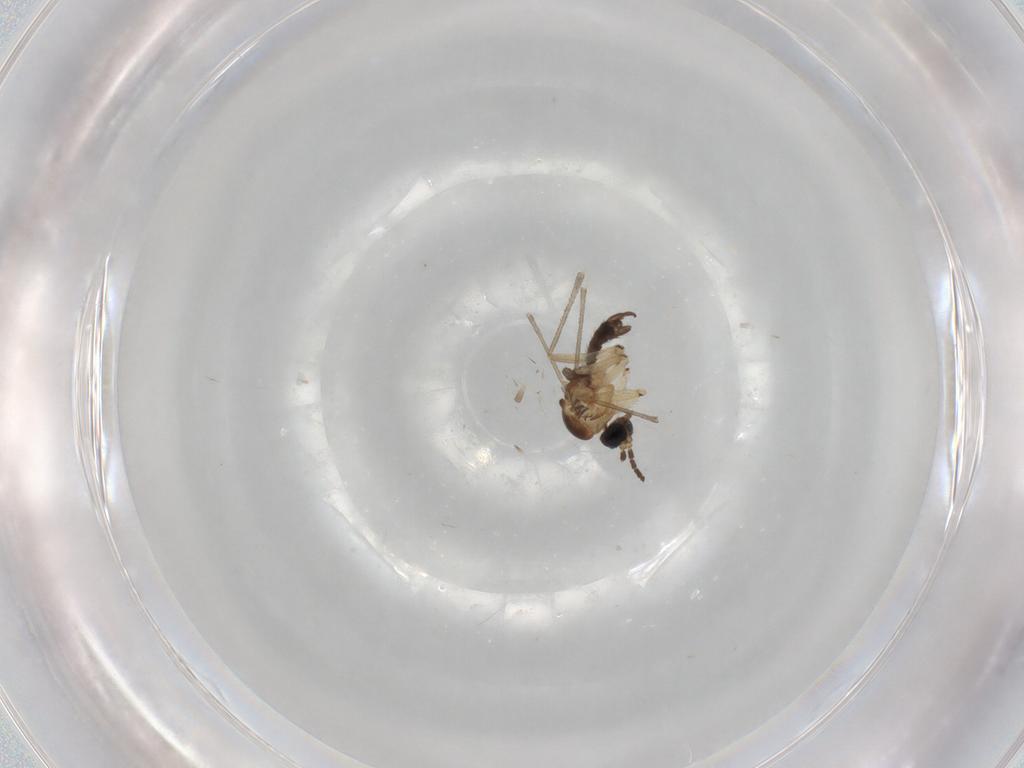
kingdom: Animalia
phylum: Arthropoda
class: Insecta
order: Diptera
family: Sciaridae
